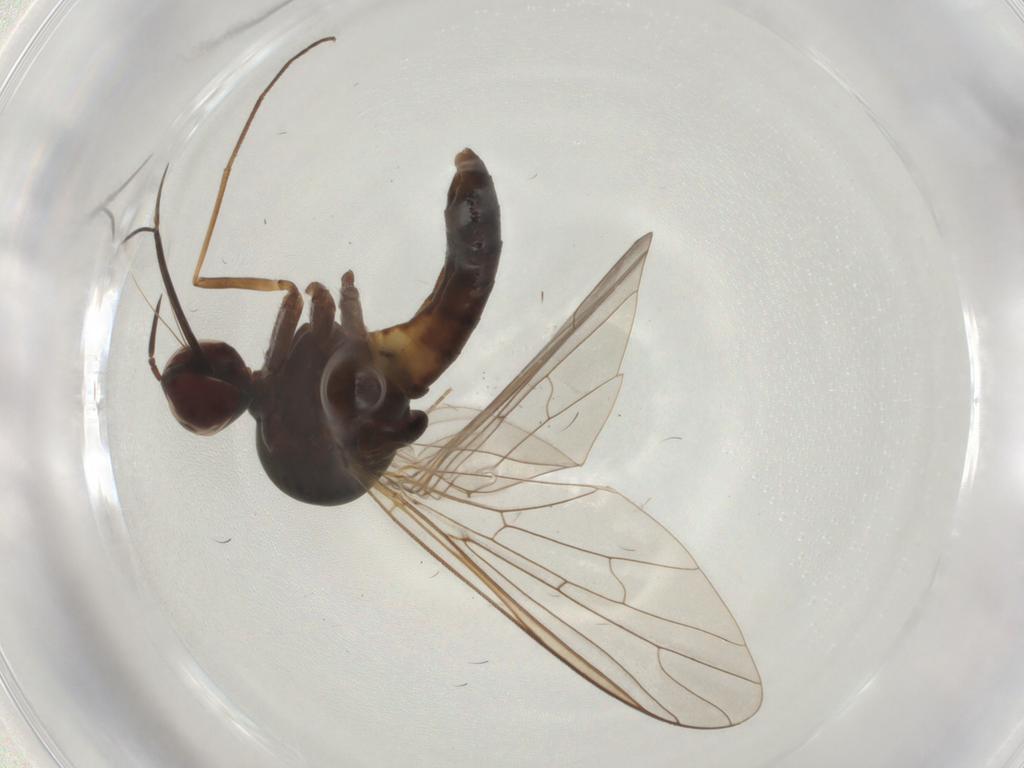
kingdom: Animalia
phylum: Arthropoda
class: Insecta
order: Diptera
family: Bombyliidae
